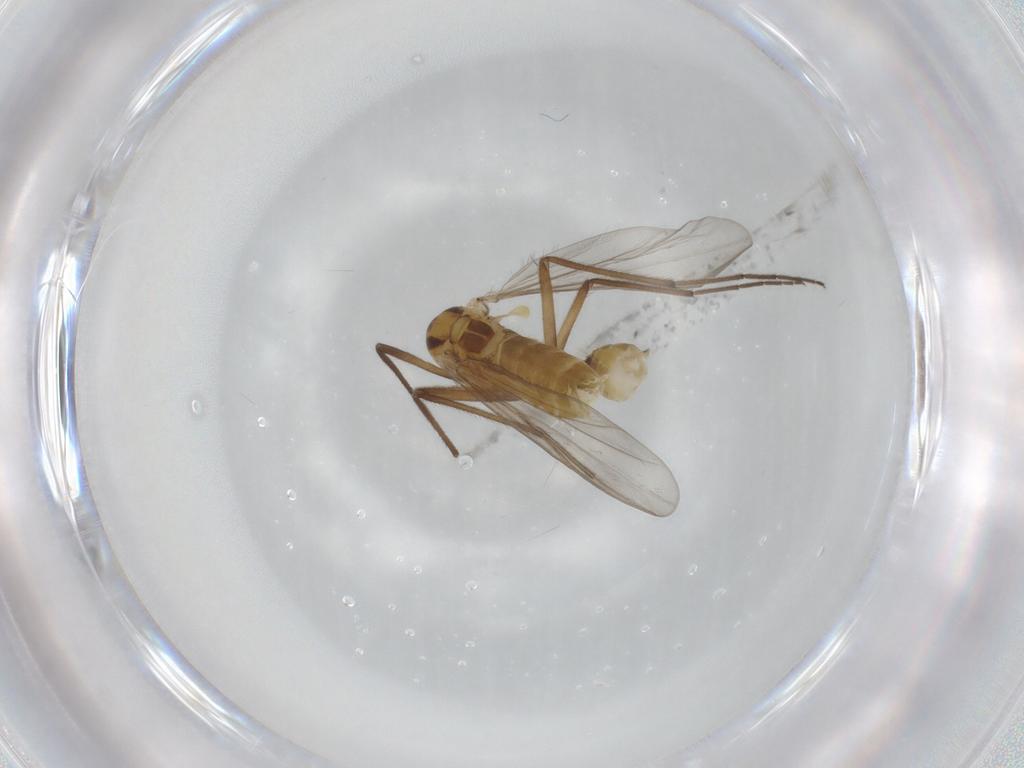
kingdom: Animalia
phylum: Arthropoda
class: Insecta
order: Diptera
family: Chironomidae
